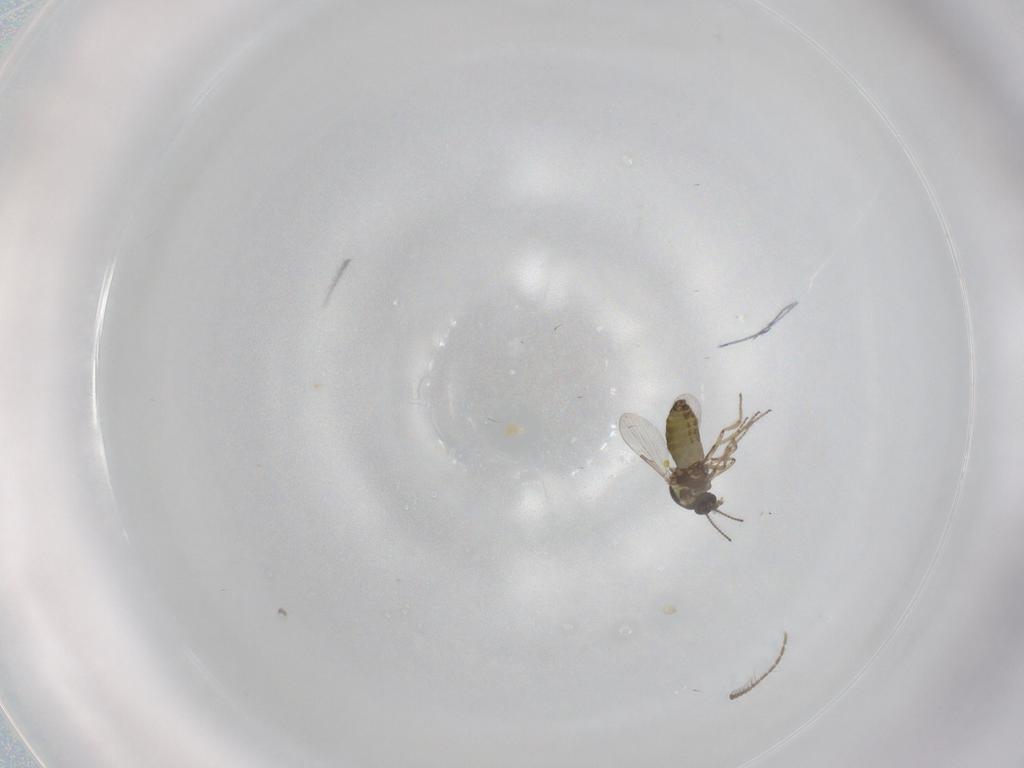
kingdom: Animalia
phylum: Arthropoda
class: Insecta
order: Diptera
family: Ceratopogonidae
